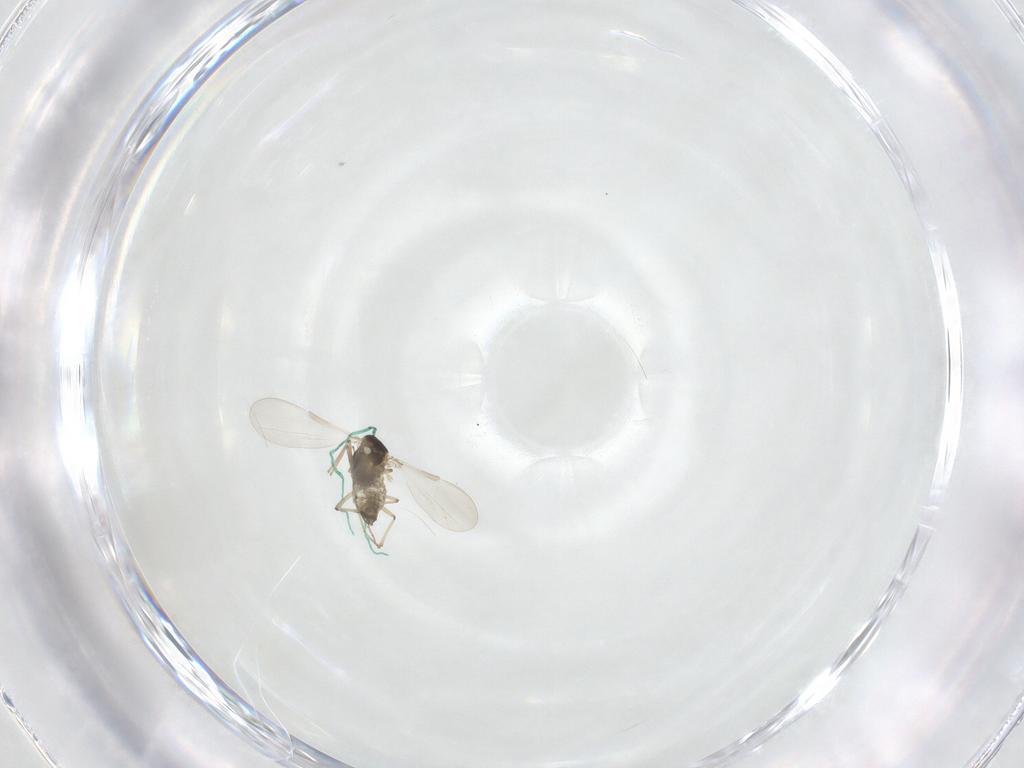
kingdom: Animalia
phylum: Arthropoda
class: Insecta
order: Diptera
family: Chironomidae
